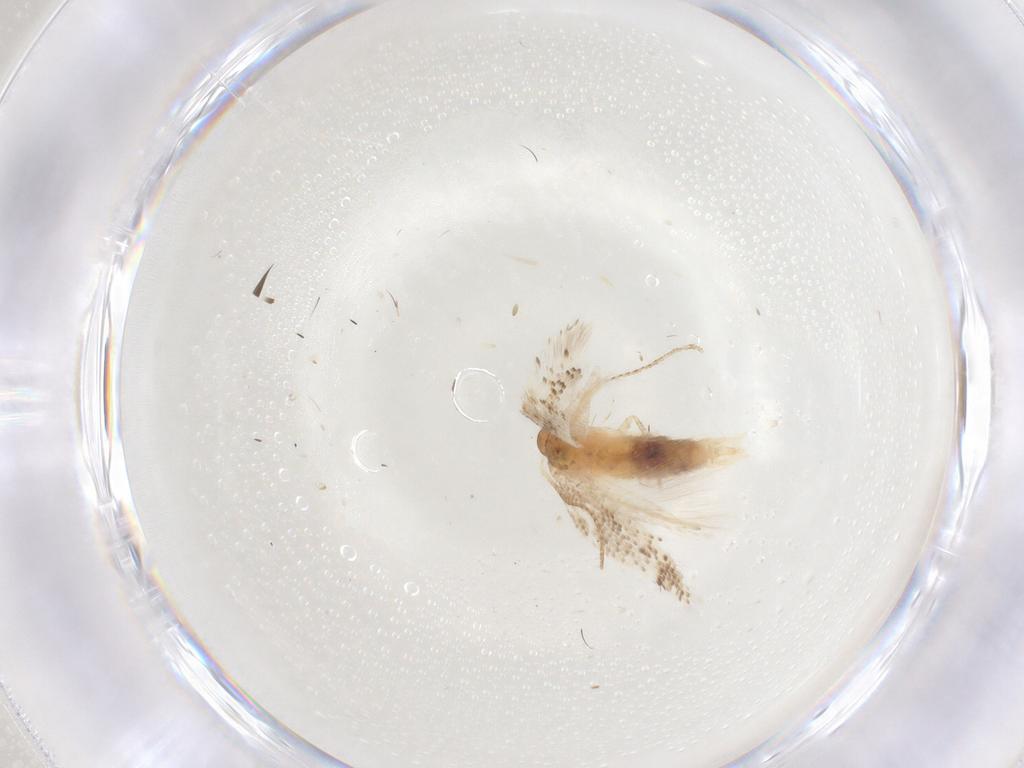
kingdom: Animalia
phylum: Arthropoda
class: Insecta
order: Lepidoptera
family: Gelechiidae
